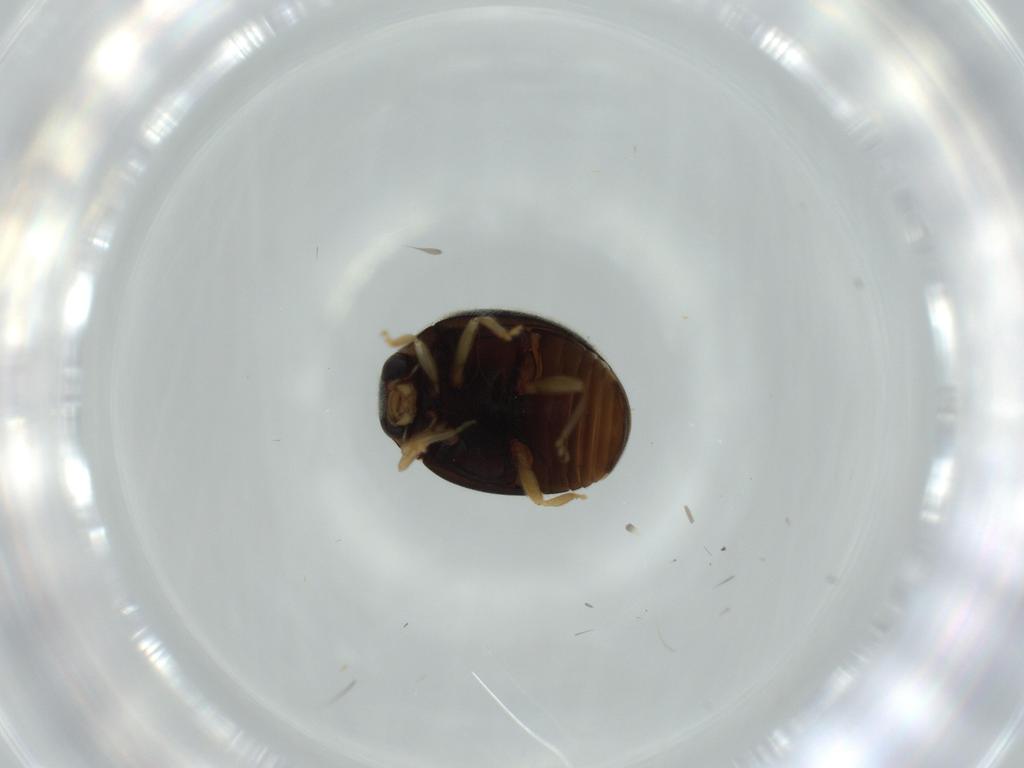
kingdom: Animalia
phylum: Arthropoda
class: Insecta
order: Coleoptera
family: Coccinellidae
